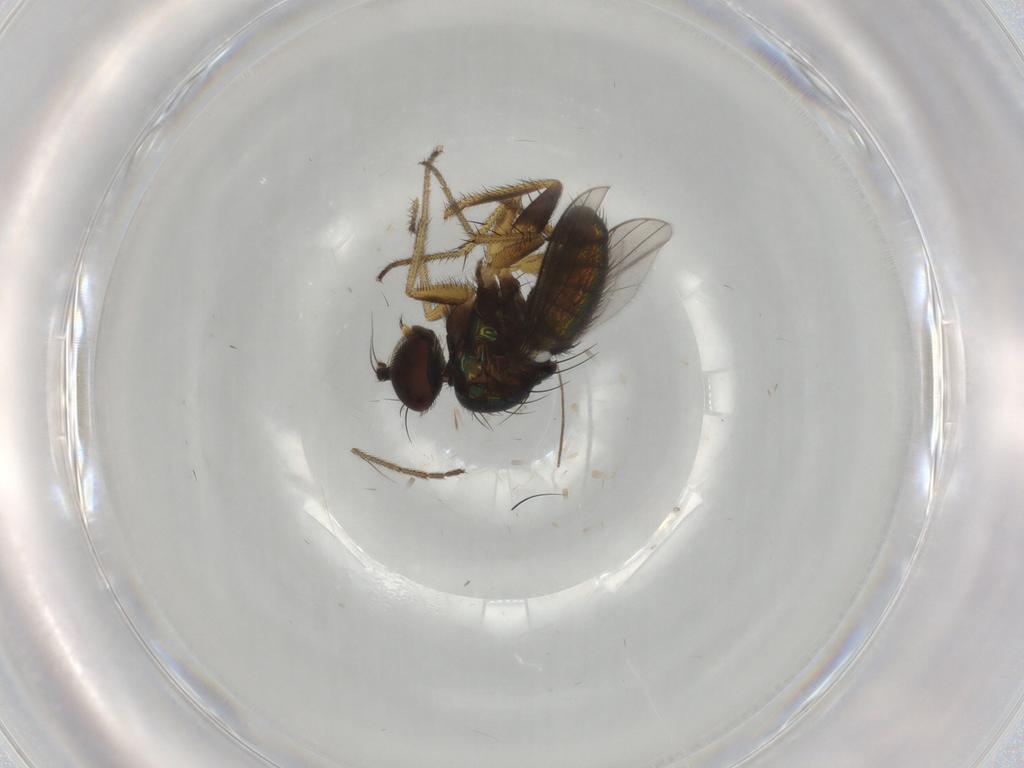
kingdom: Animalia
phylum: Arthropoda
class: Insecta
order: Diptera
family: Dolichopodidae
